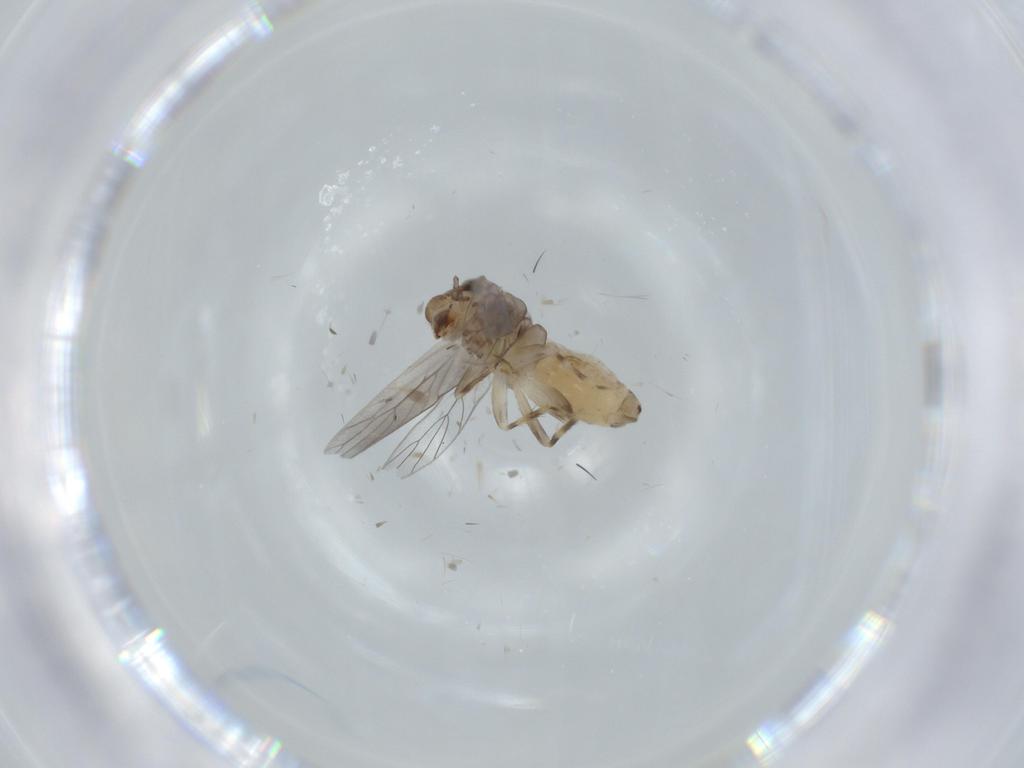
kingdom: Animalia
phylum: Arthropoda
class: Insecta
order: Psocodea
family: Lepidopsocidae
